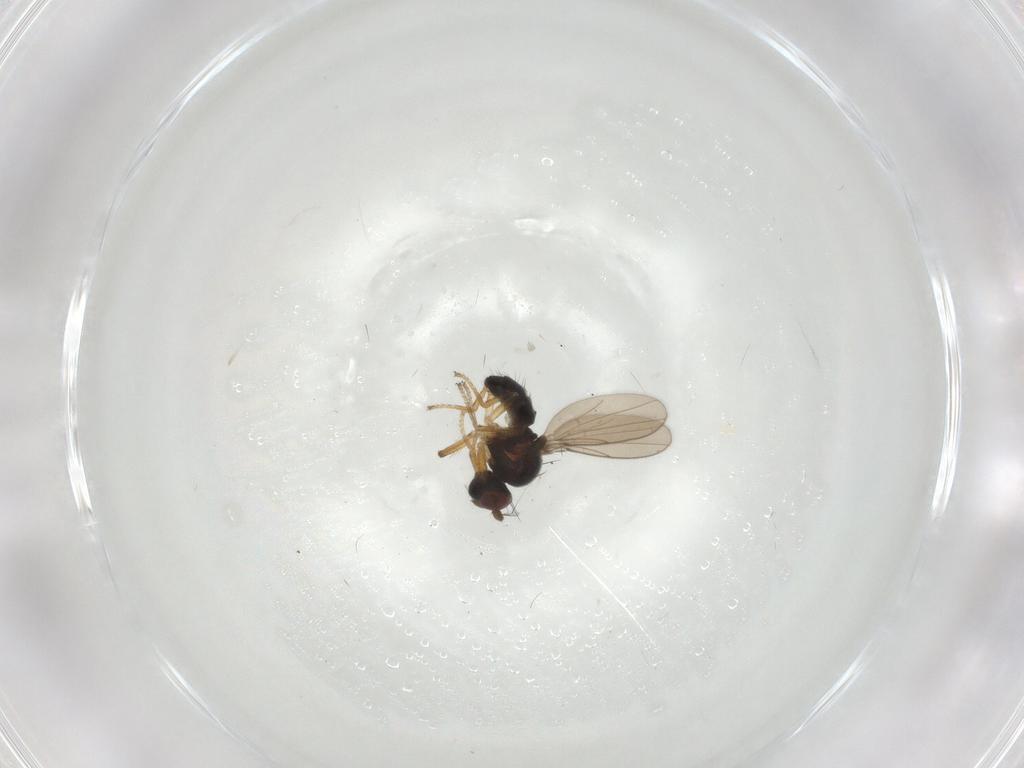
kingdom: Animalia
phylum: Arthropoda
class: Insecta
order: Diptera
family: Ephydridae
